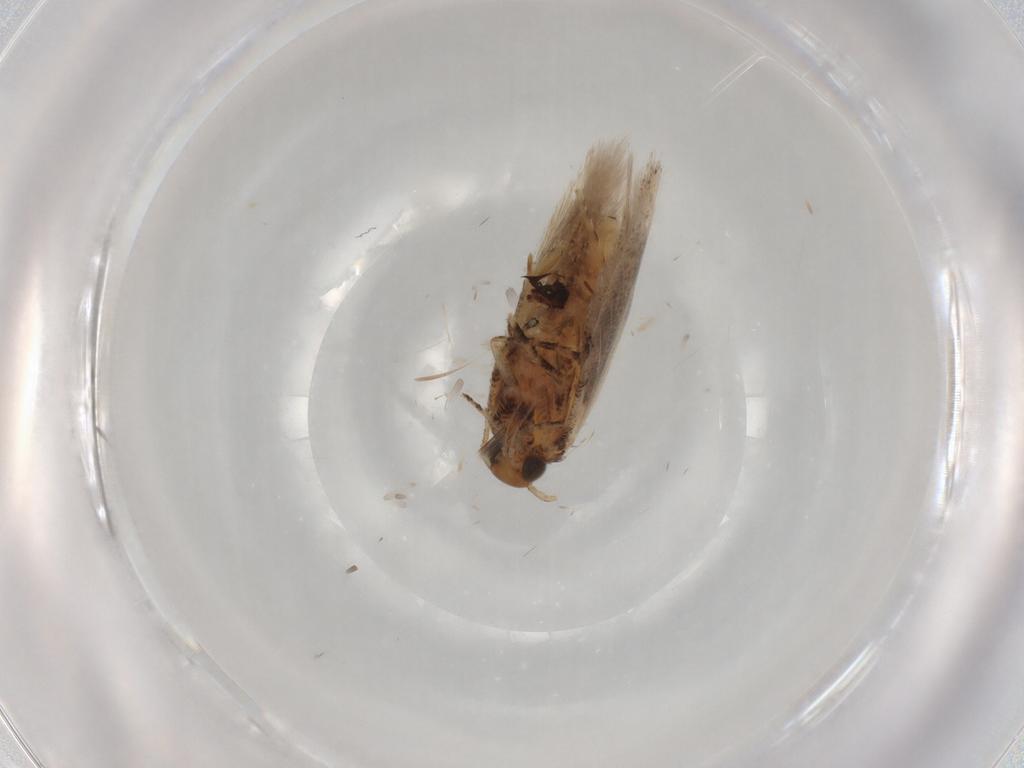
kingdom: Animalia
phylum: Arthropoda
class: Insecta
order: Lepidoptera
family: Gelechiidae
